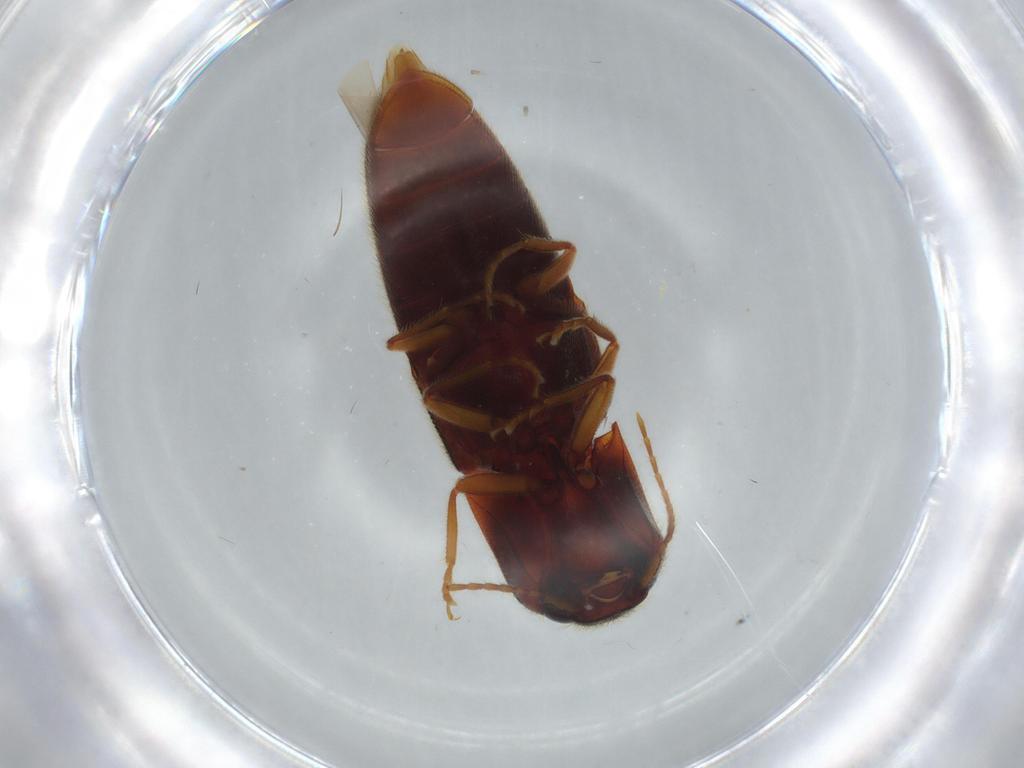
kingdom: Animalia
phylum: Arthropoda
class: Insecta
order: Coleoptera
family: Elateridae
